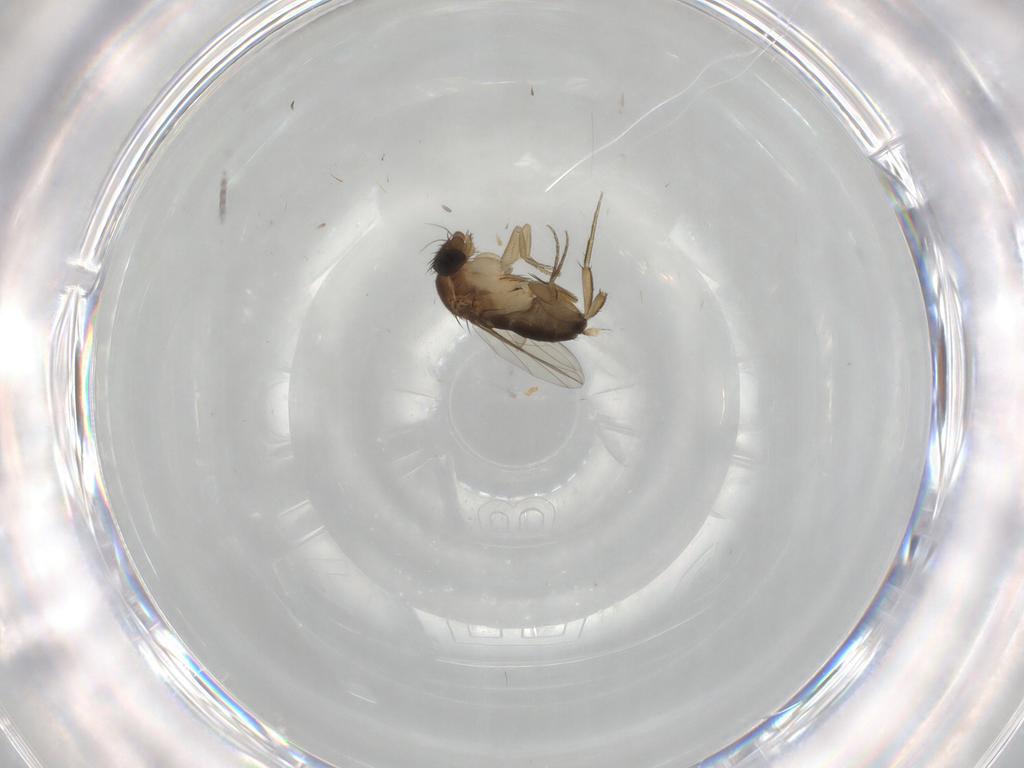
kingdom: Animalia
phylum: Arthropoda
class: Insecta
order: Diptera
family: Phoridae
